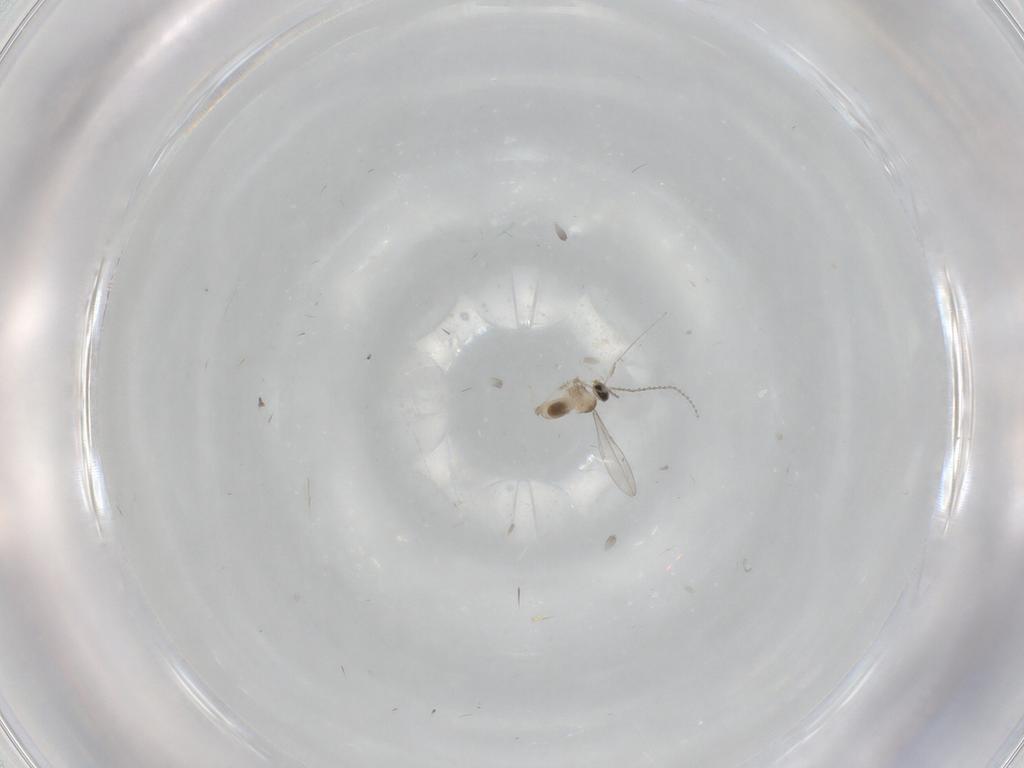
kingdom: Animalia
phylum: Arthropoda
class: Insecta
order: Diptera
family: Cecidomyiidae
